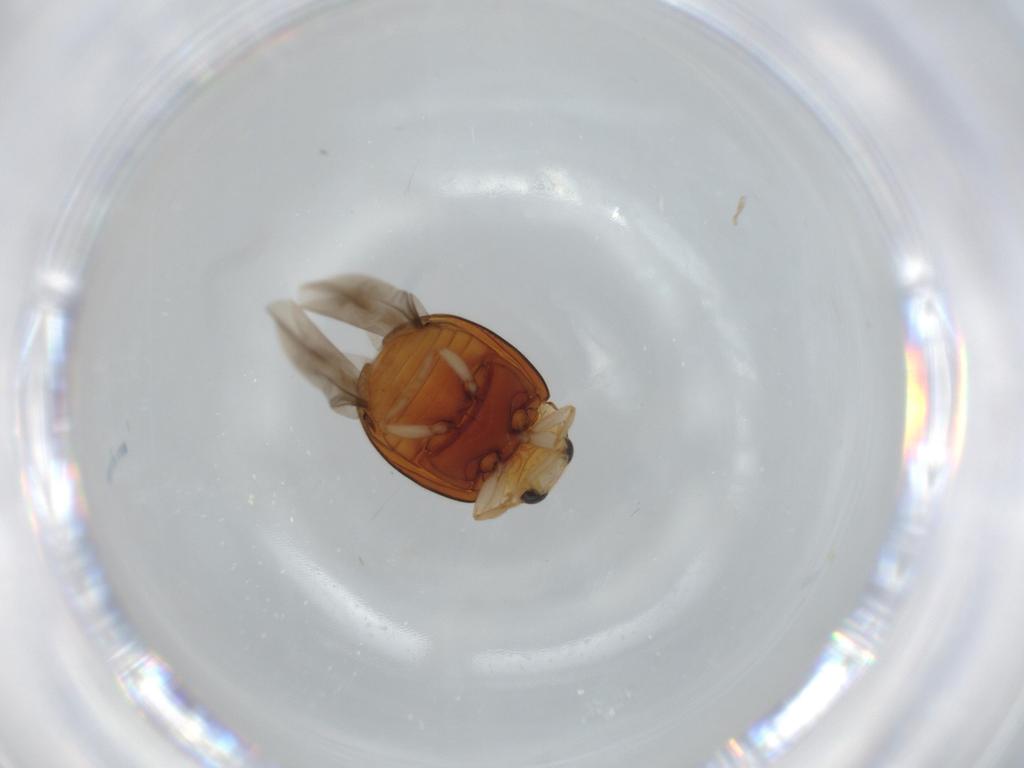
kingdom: Animalia
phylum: Arthropoda
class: Insecta
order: Coleoptera
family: Coccinellidae
